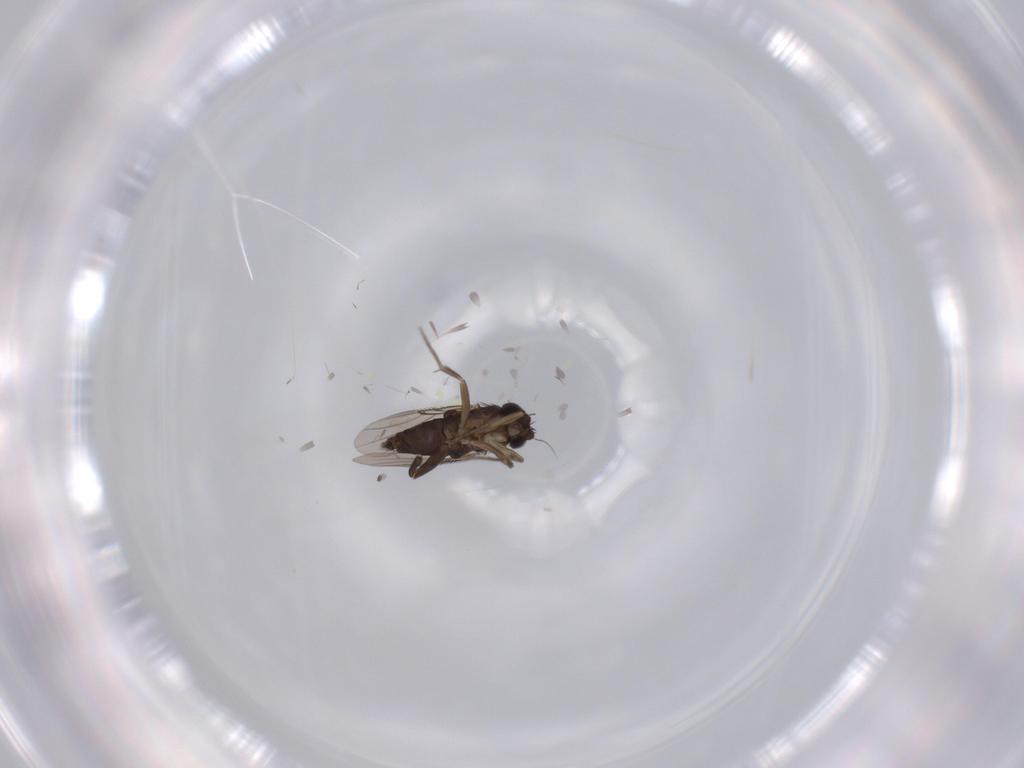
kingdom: Animalia
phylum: Arthropoda
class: Insecta
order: Diptera
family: Phoridae
